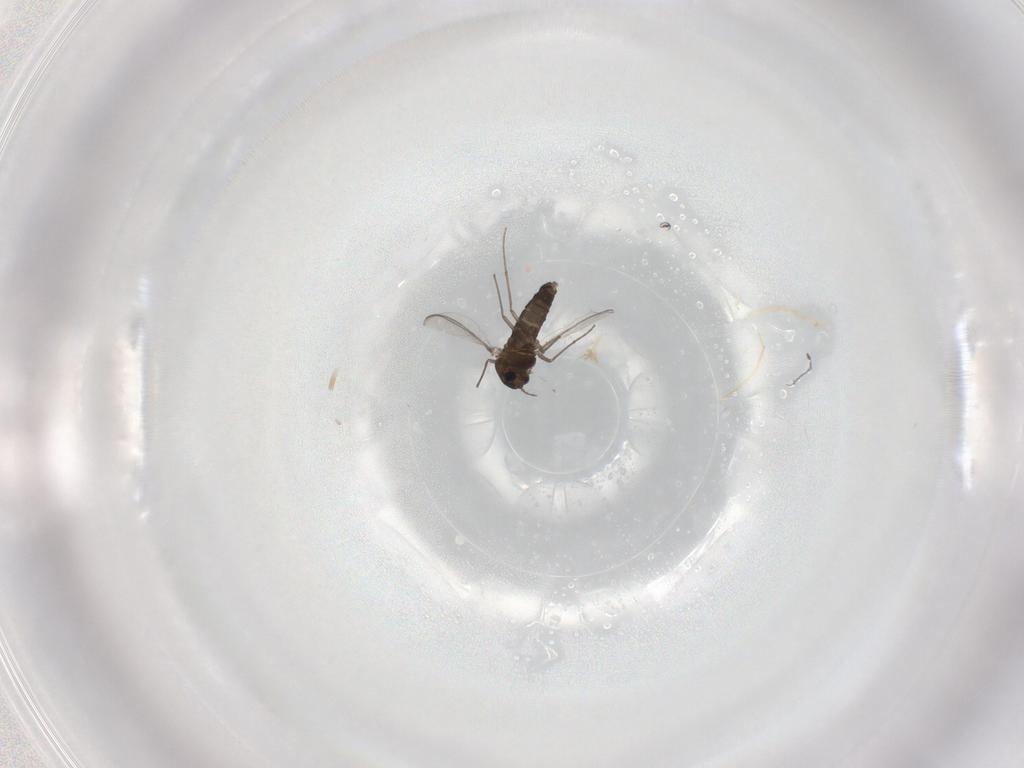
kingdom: Animalia
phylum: Arthropoda
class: Insecta
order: Diptera
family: Chironomidae
